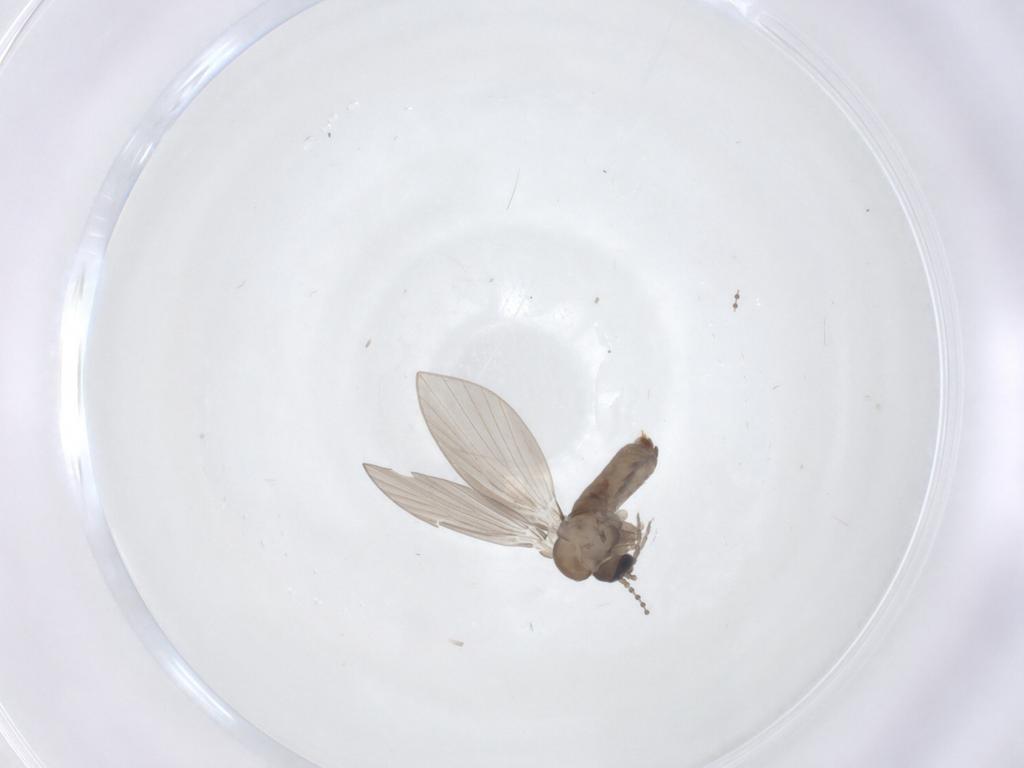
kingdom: Animalia
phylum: Arthropoda
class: Insecta
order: Diptera
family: Psychodidae
